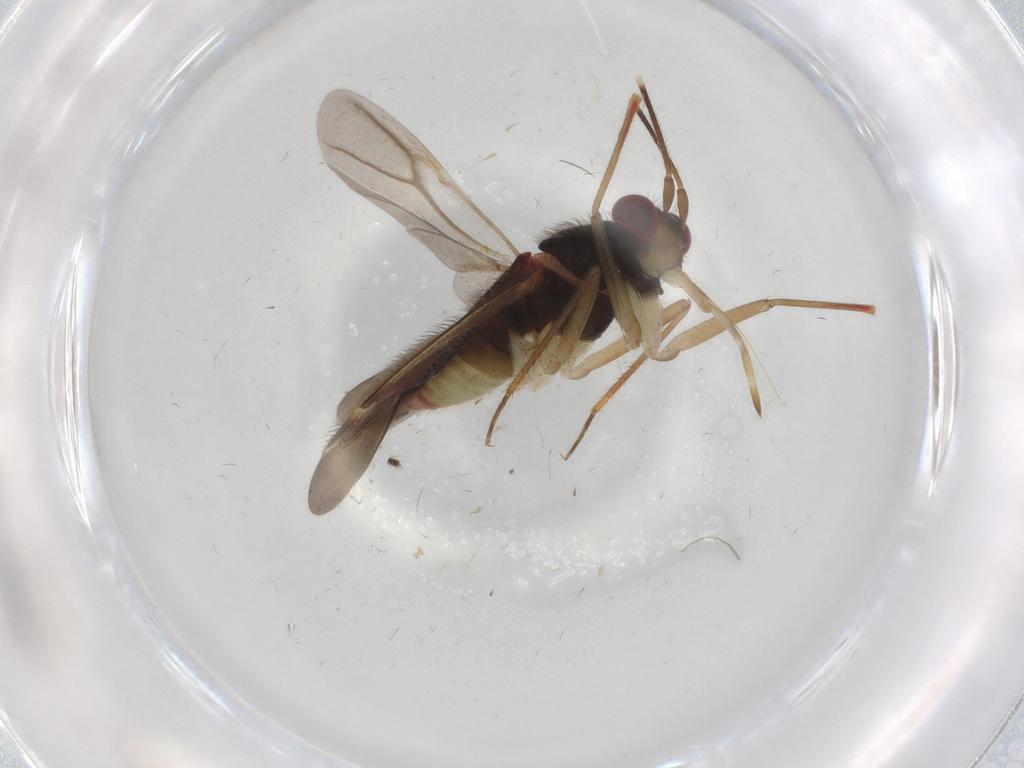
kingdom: Animalia
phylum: Arthropoda
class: Insecta
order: Hemiptera
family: Miridae
